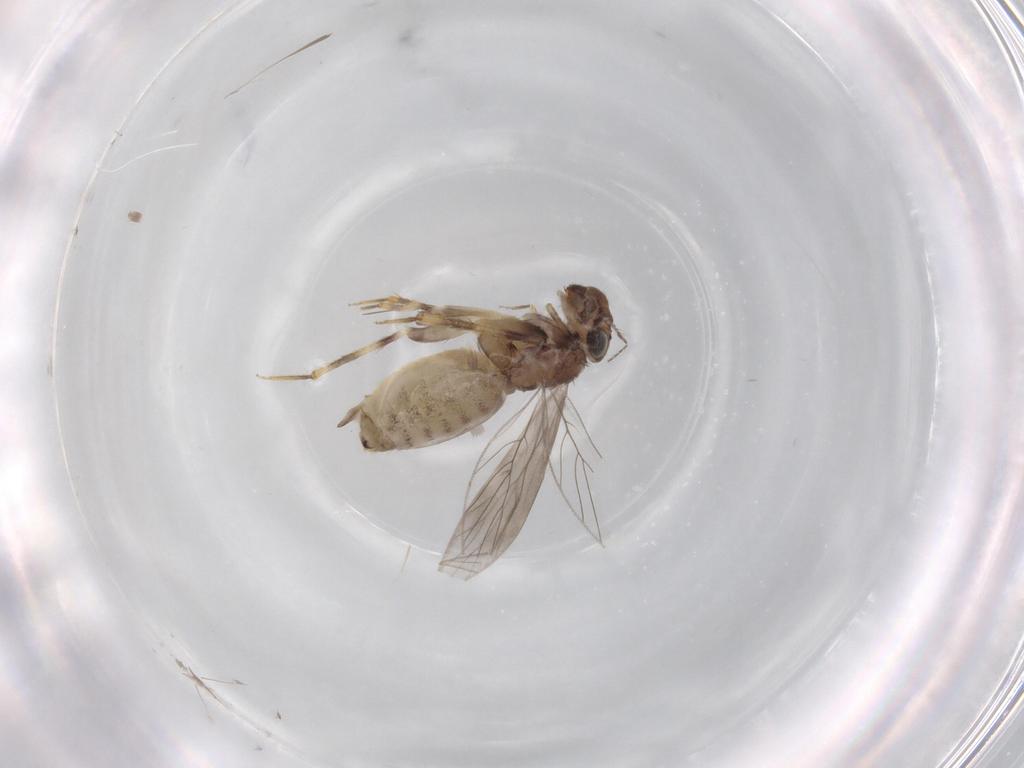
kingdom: Animalia
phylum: Arthropoda
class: Insecta
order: Psocodea
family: Lepidopsocidae
